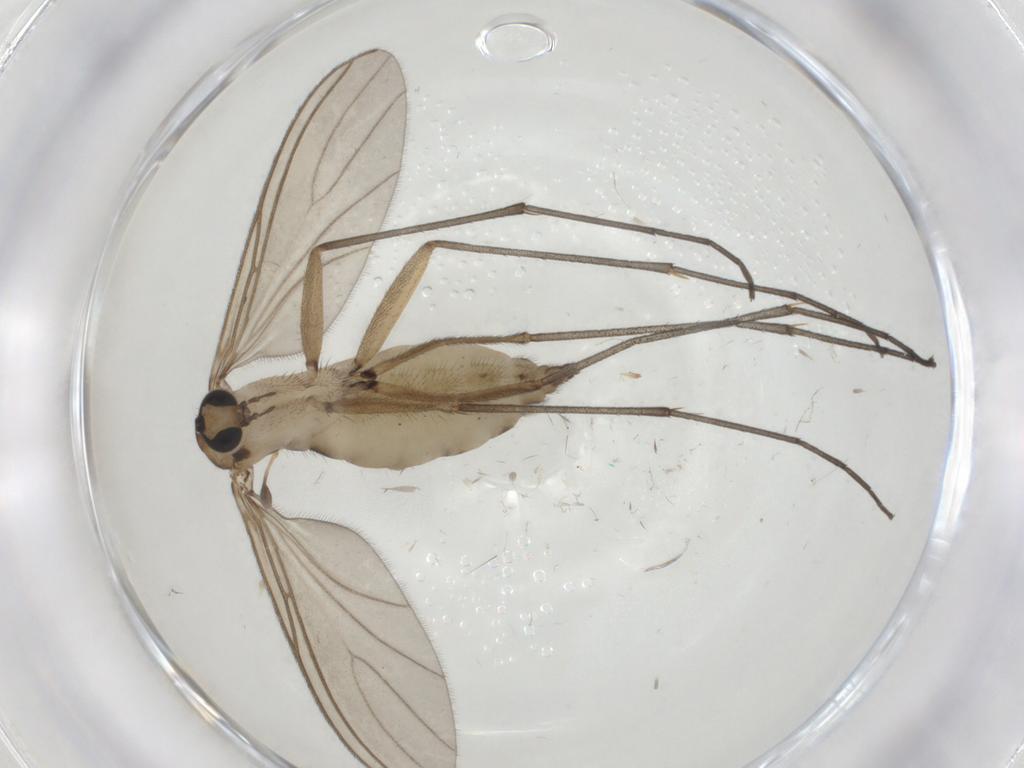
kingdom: Animalia
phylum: Arthropoda
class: Insecta
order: Diptera
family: Sciaridae
